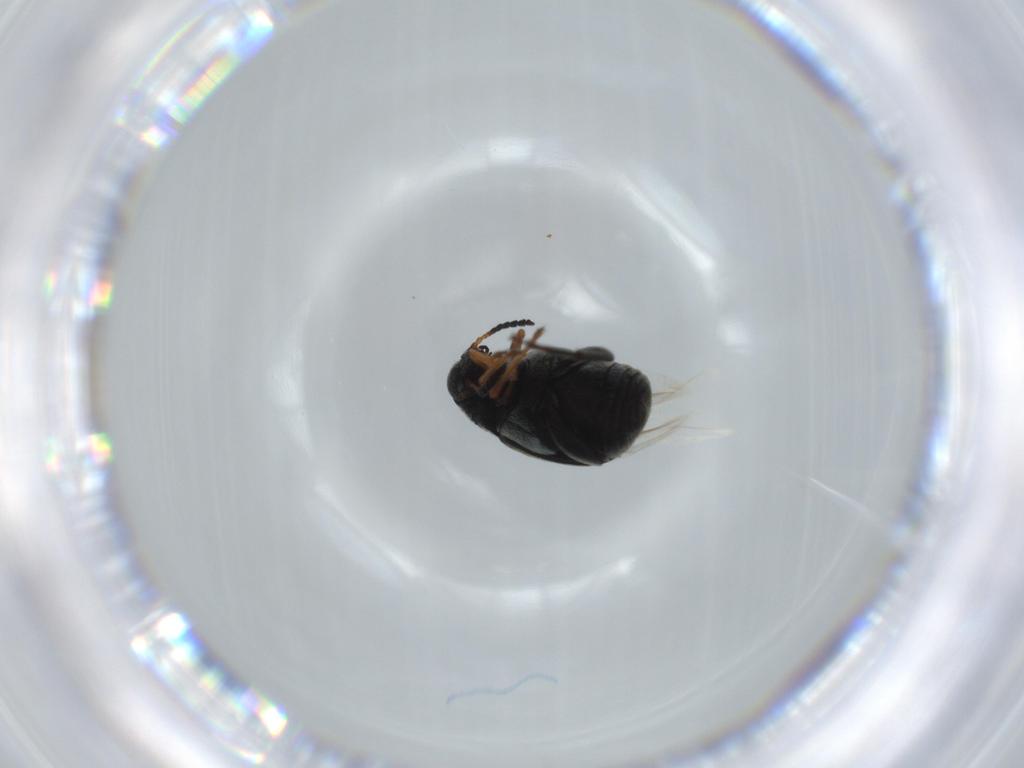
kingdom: Animalia
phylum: Arthropoda
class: Insecta
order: Coleoptera
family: Chrysomelidae
